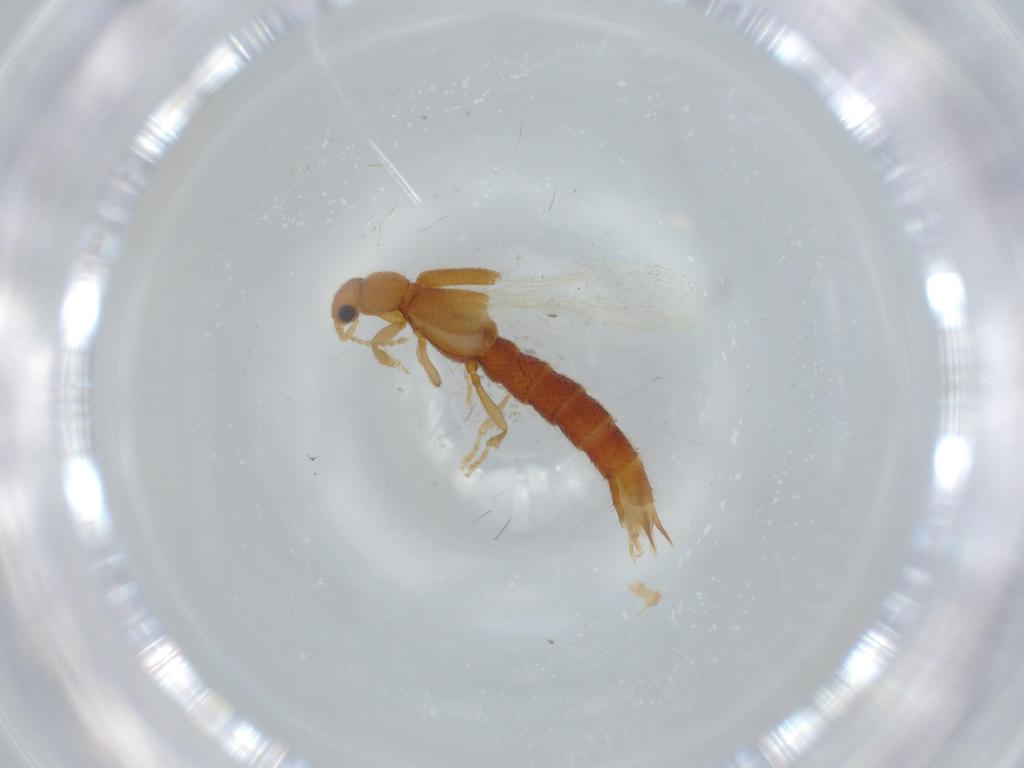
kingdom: Animalia
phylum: Arthropoda
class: Insecta
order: Coleoptera
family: Staphylinidae
